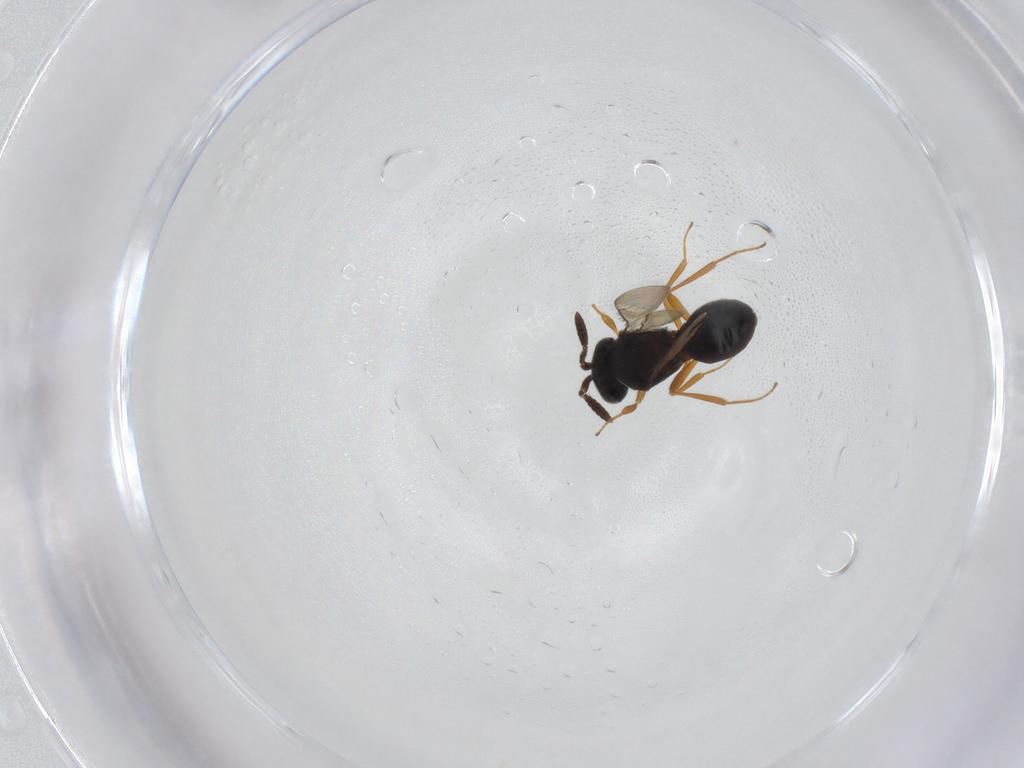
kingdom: Animalia
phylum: Arthropoda
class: Insecta
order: Hymenoptera
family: Scelionidae
